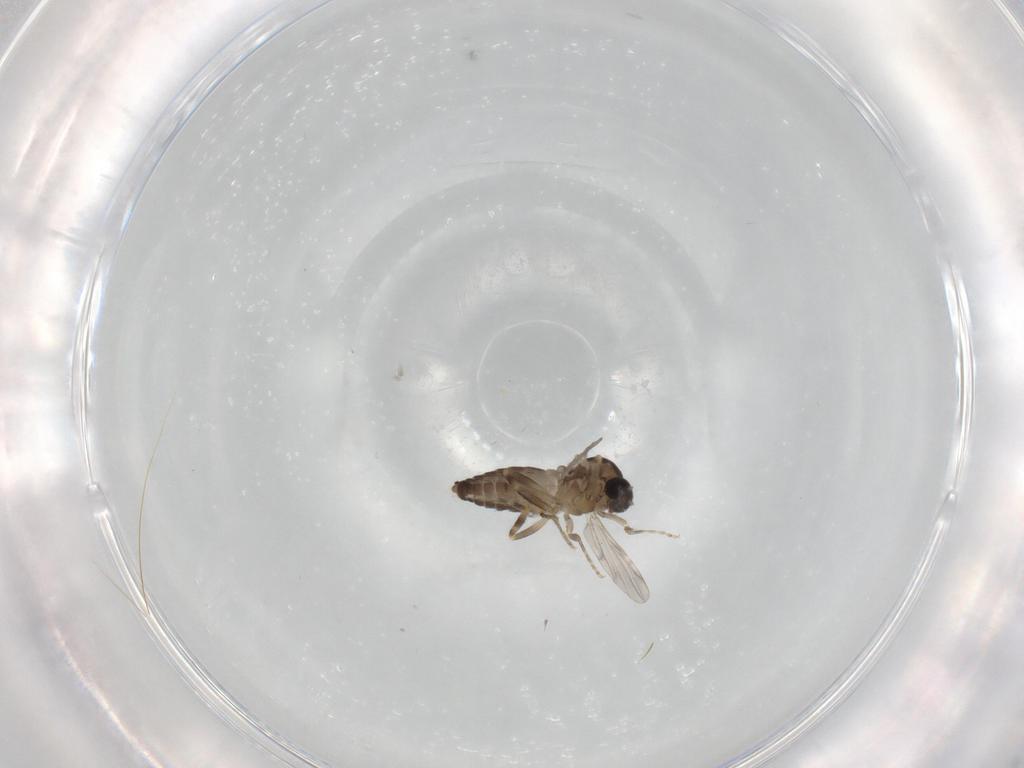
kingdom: Animalia
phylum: Arthropoda
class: Insecta
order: Diptera
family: Ceratopogonidae
